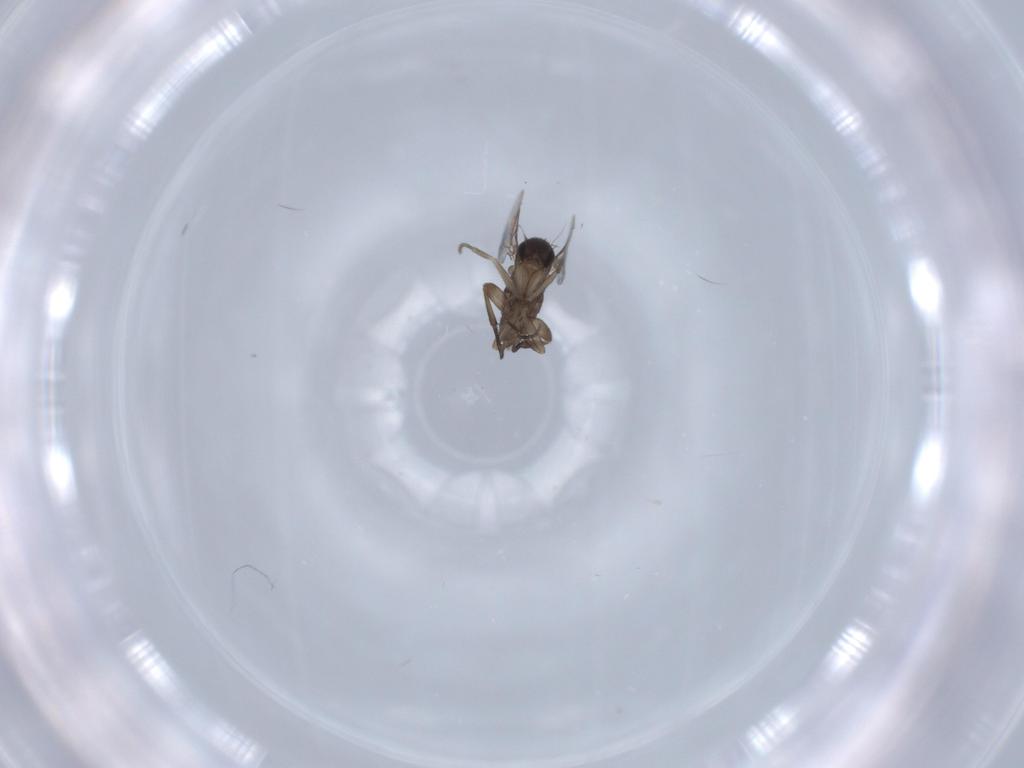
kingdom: Animalia
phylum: Arthropoda
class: Insecta
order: Diptera
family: Phoridae
